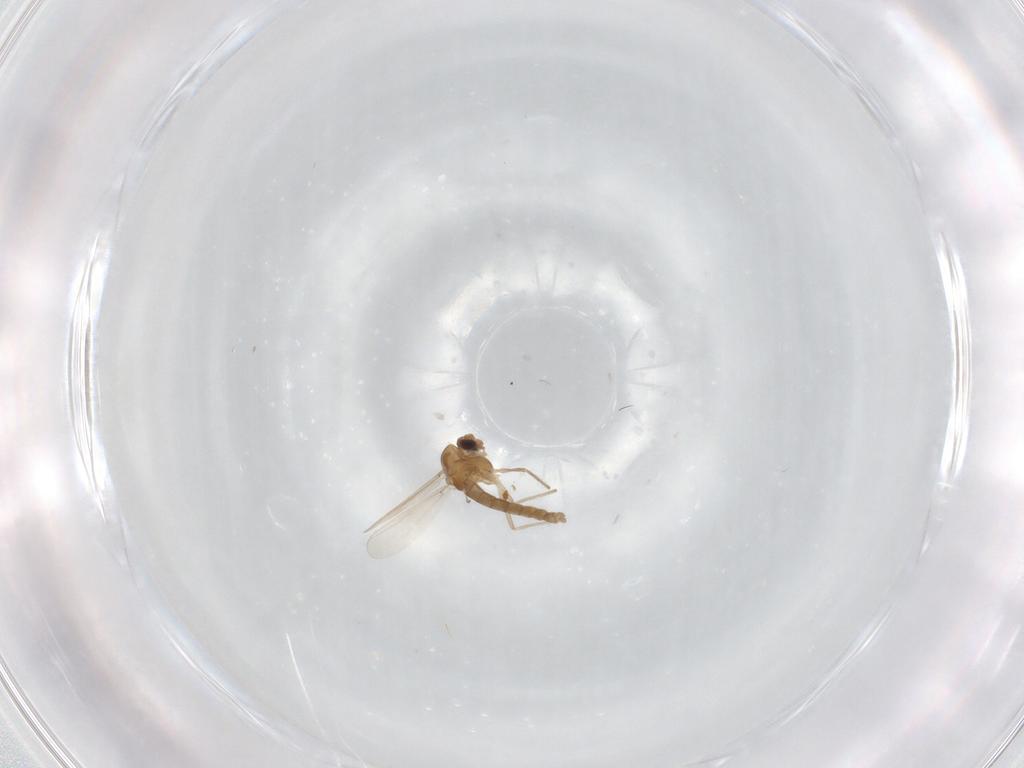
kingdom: Animalia
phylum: Arthropoda
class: Insecta
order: Diptera
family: Chironomidae
